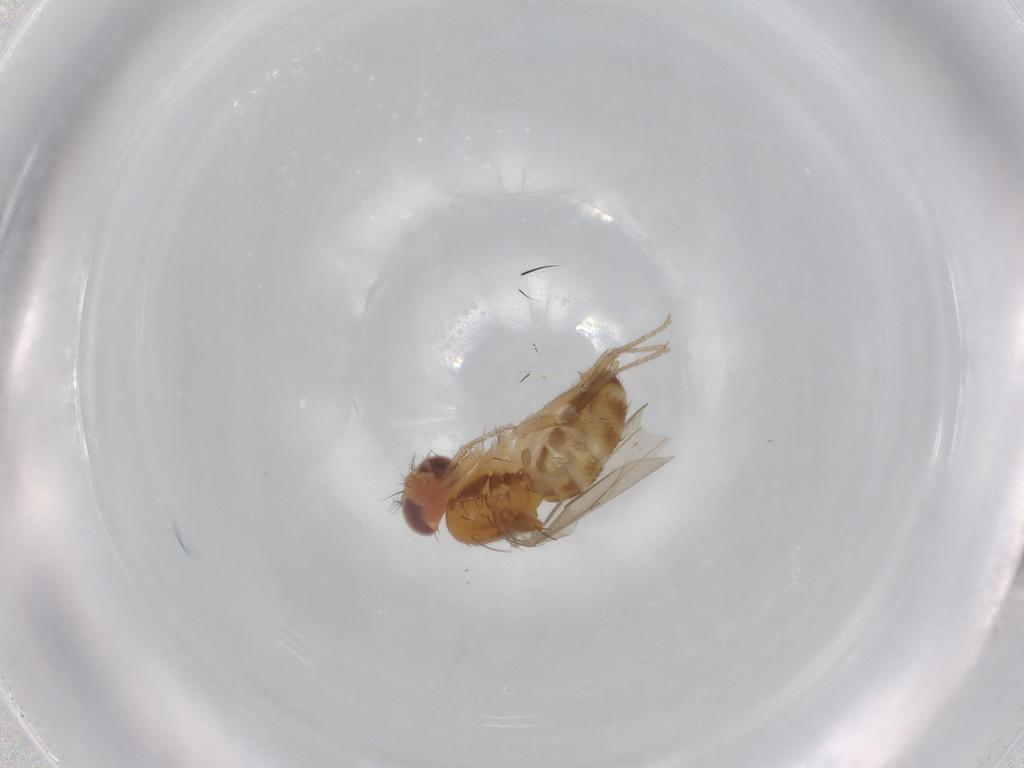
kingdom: Animalia
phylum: Arthropoda
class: Insecta
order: Diptera
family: Drosophilidae
